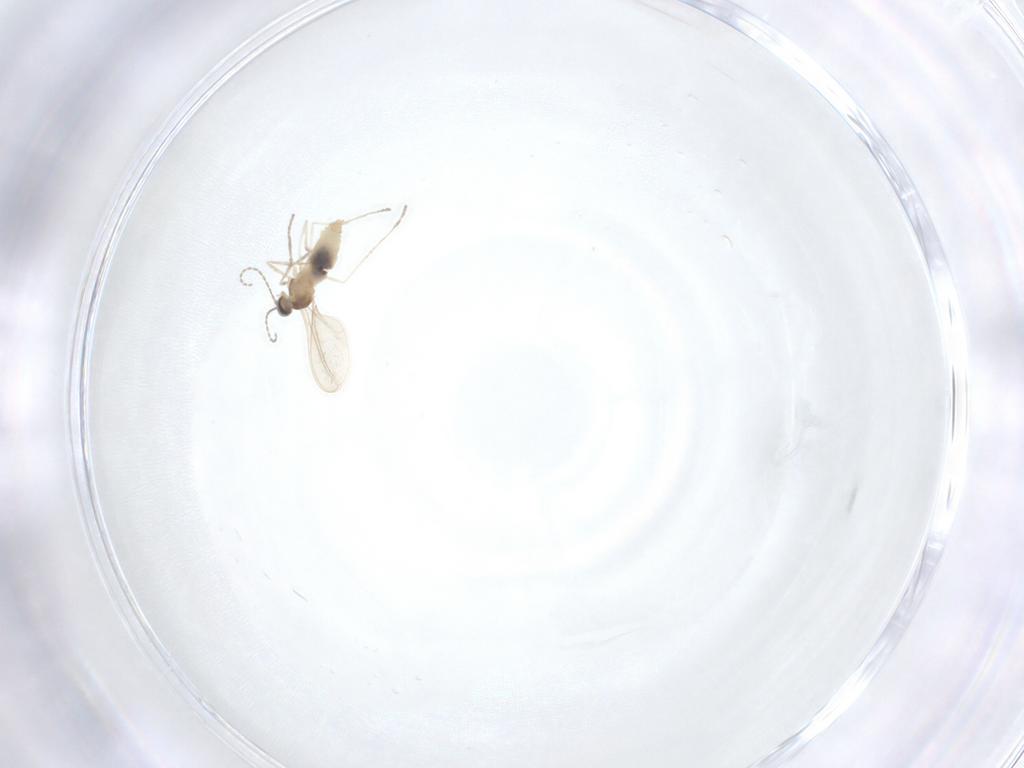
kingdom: Animalia
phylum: Arthropoda
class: Insecta
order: Diptera
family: Cecidomyiidae
